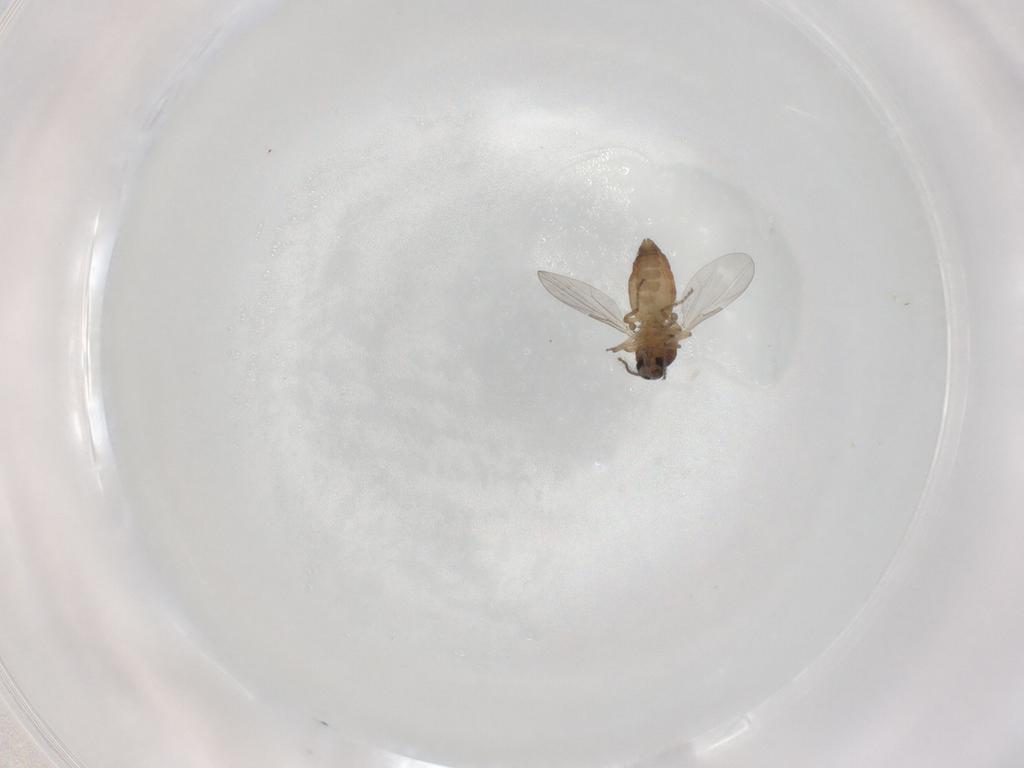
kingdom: Animalia
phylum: Arthropoda
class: Insecta
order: Diptera
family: Ceratopogonidae
